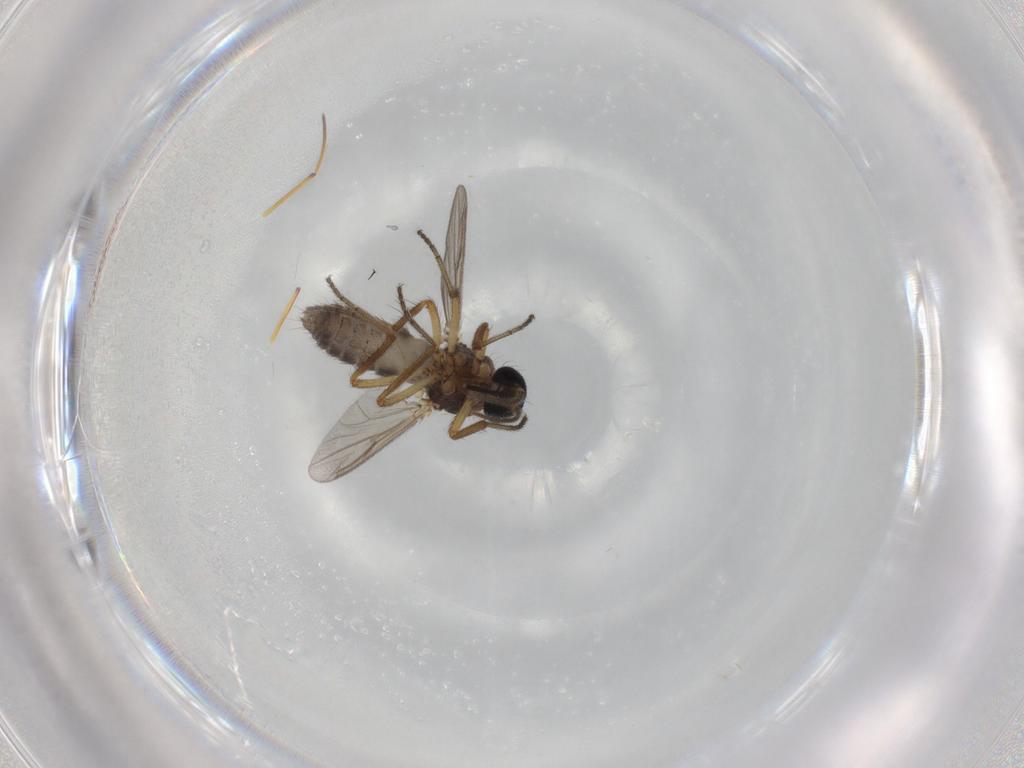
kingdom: Animalia
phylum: Arthropoda
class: Insecta
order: Diptera
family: Ceratopogonidae
